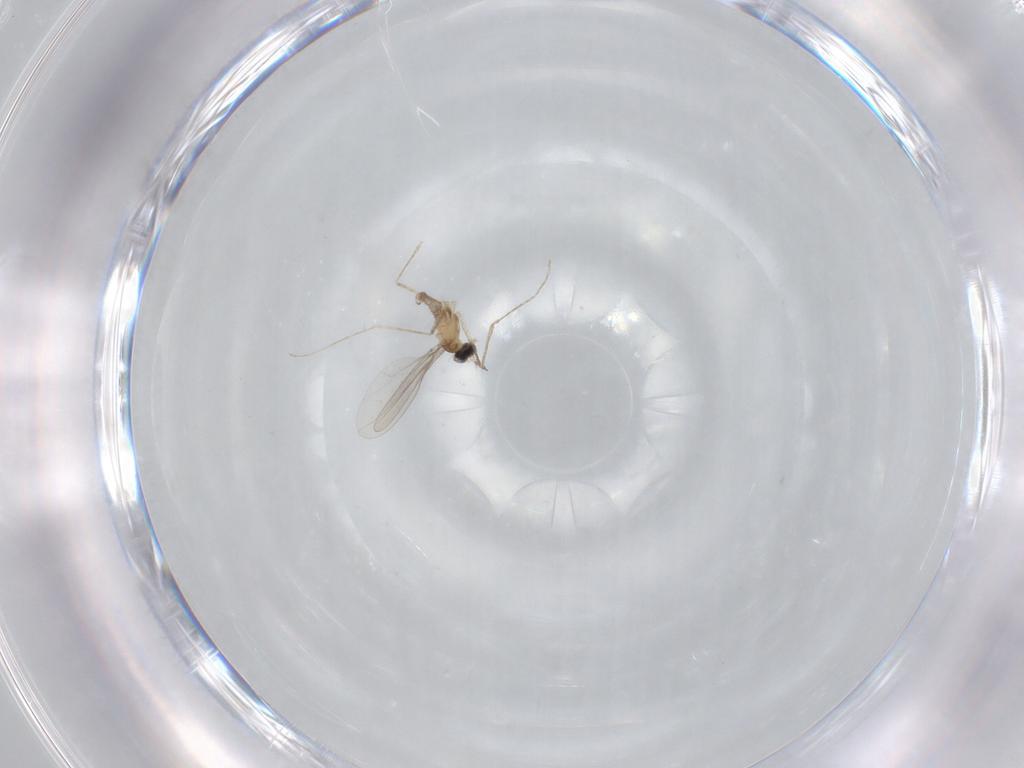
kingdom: Animalia
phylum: Arthropoda
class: Insecta
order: Diptera
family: Cecidomyiidae
